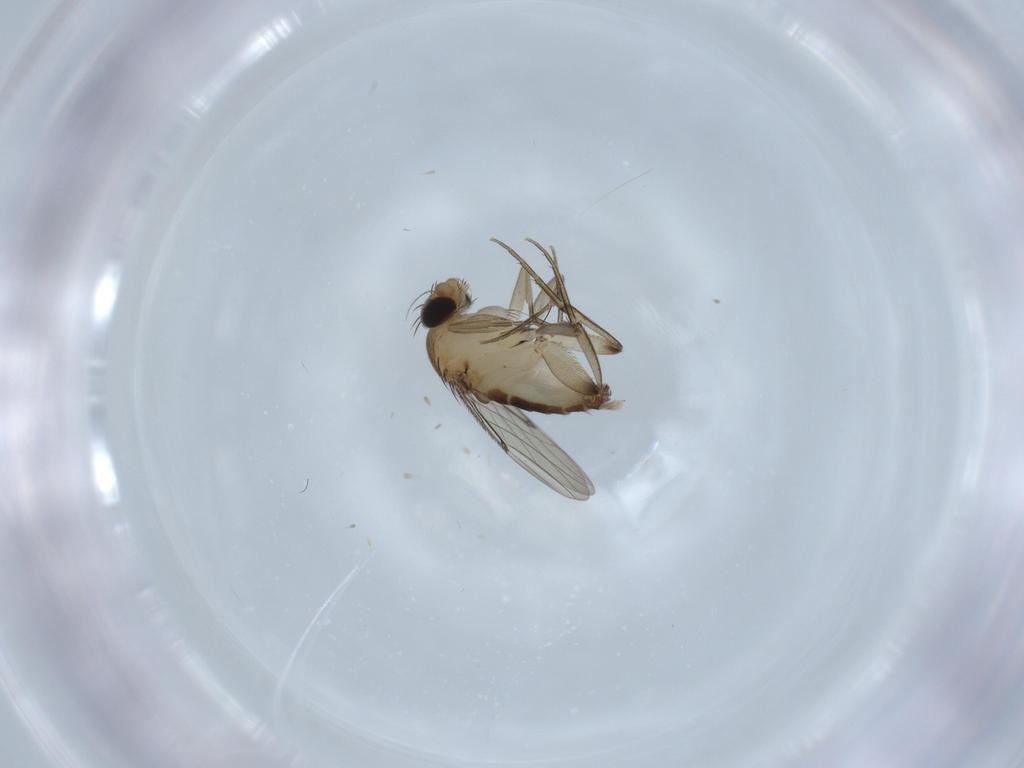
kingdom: Animalia
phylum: Arthropoda
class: Insecta
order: Diptera
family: Phoridae
